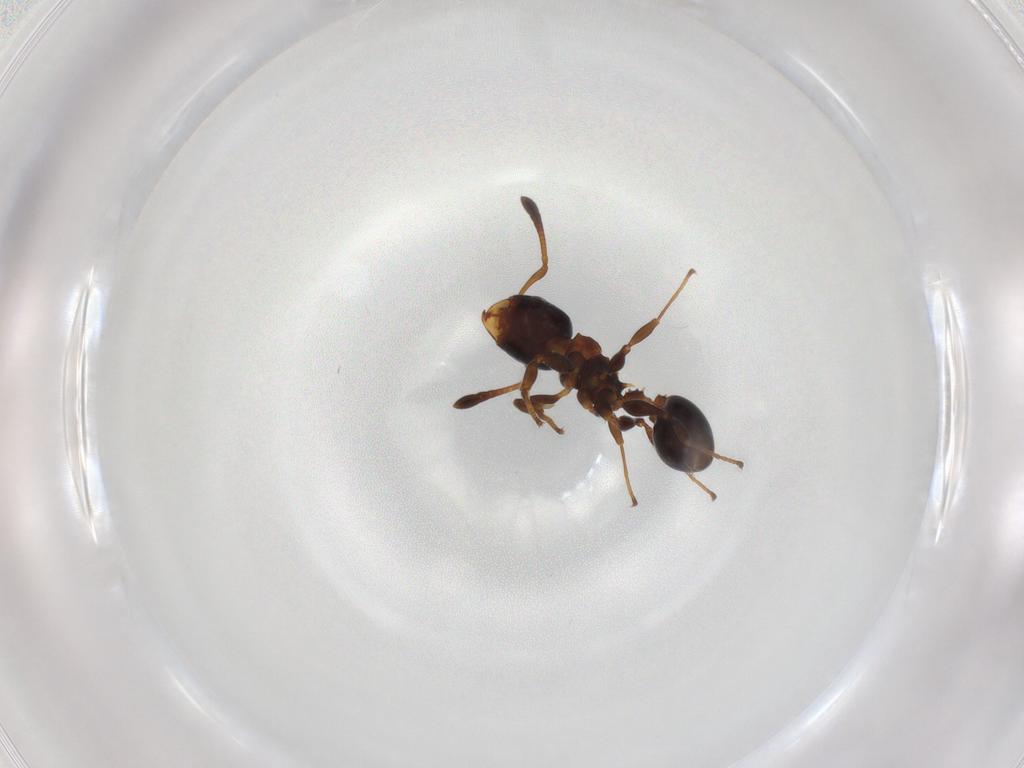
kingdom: Animalia
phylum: Arthropoda
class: Insecta
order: Hymenoptera
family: Formicidae
